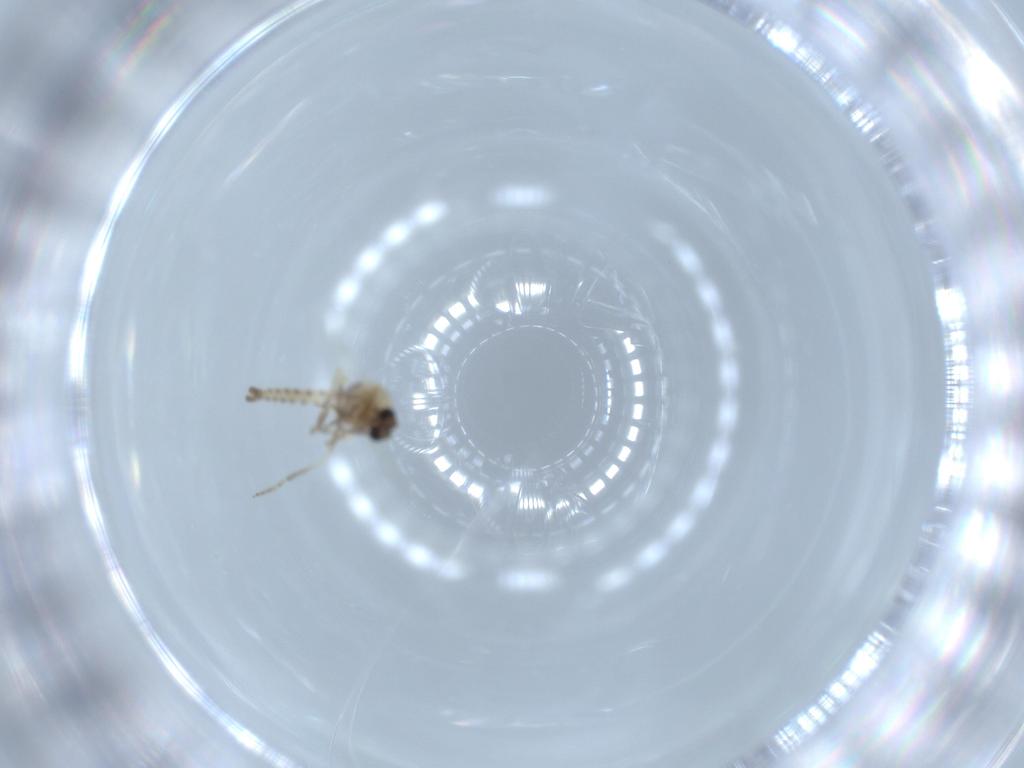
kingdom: Animalia
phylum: Arthropoda
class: Insecta
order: Diptera
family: Ceratopogonidae
